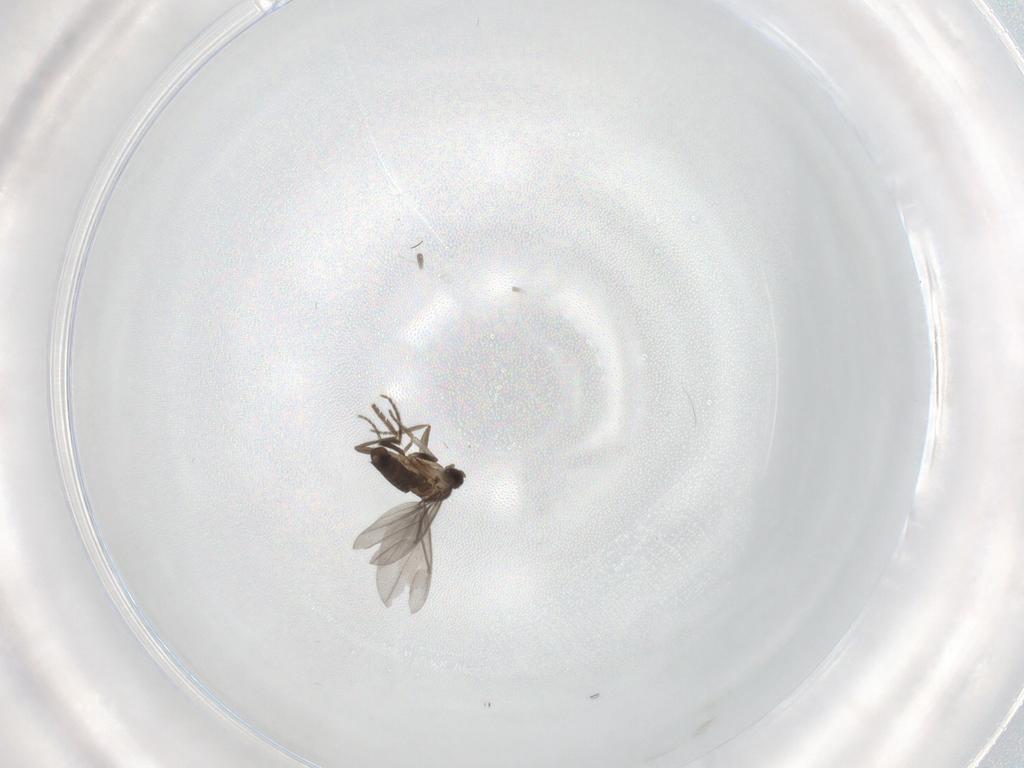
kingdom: Animalia
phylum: Arthropoda
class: Insecta
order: Diptera
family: Phoridae
